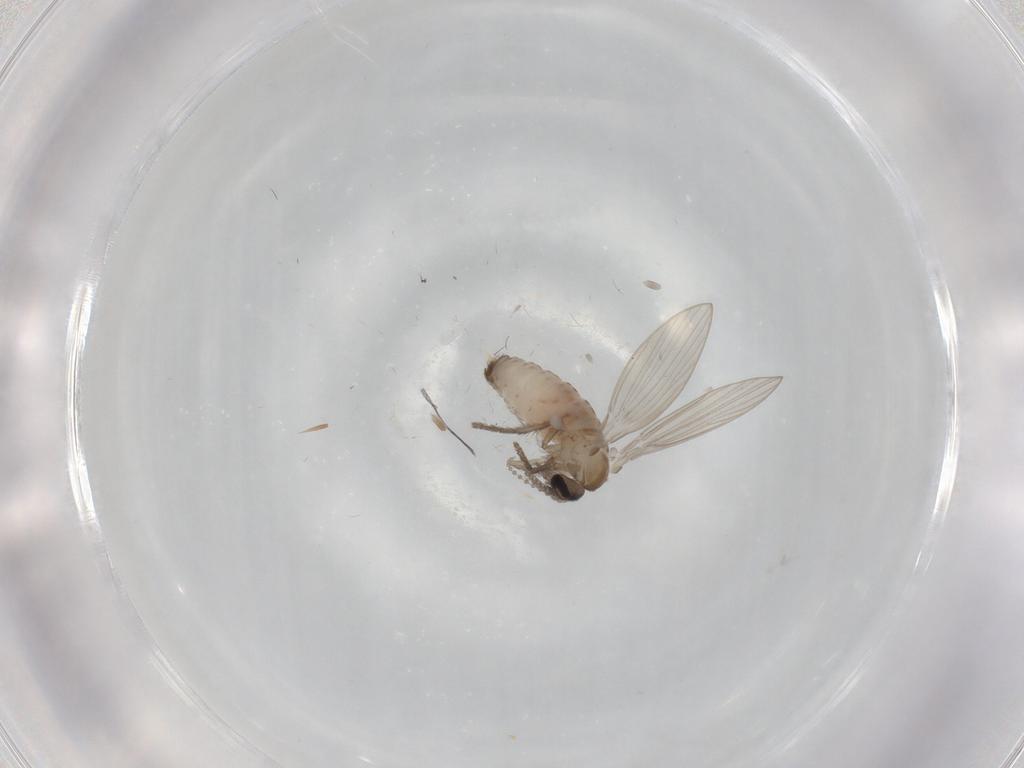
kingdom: Animalia
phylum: Arthropoda
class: Insecta
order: Diptera
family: Psychodidae
